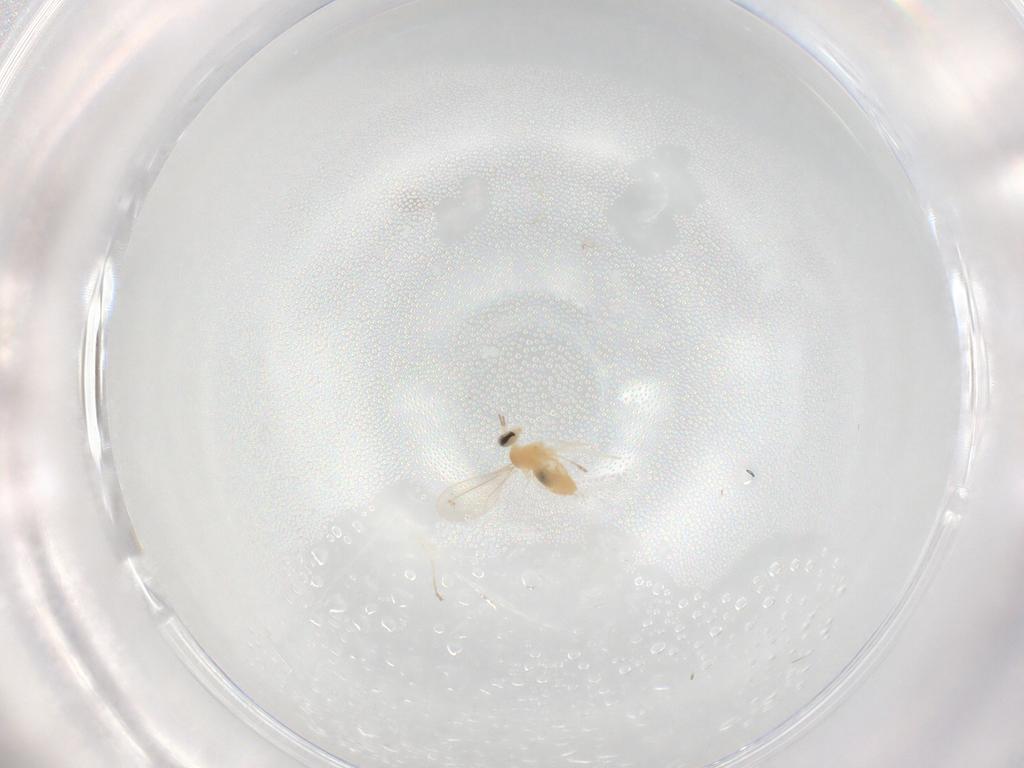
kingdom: Animalia
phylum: Arthropoda
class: Insecta
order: Diptera
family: Cecidomyiidae
